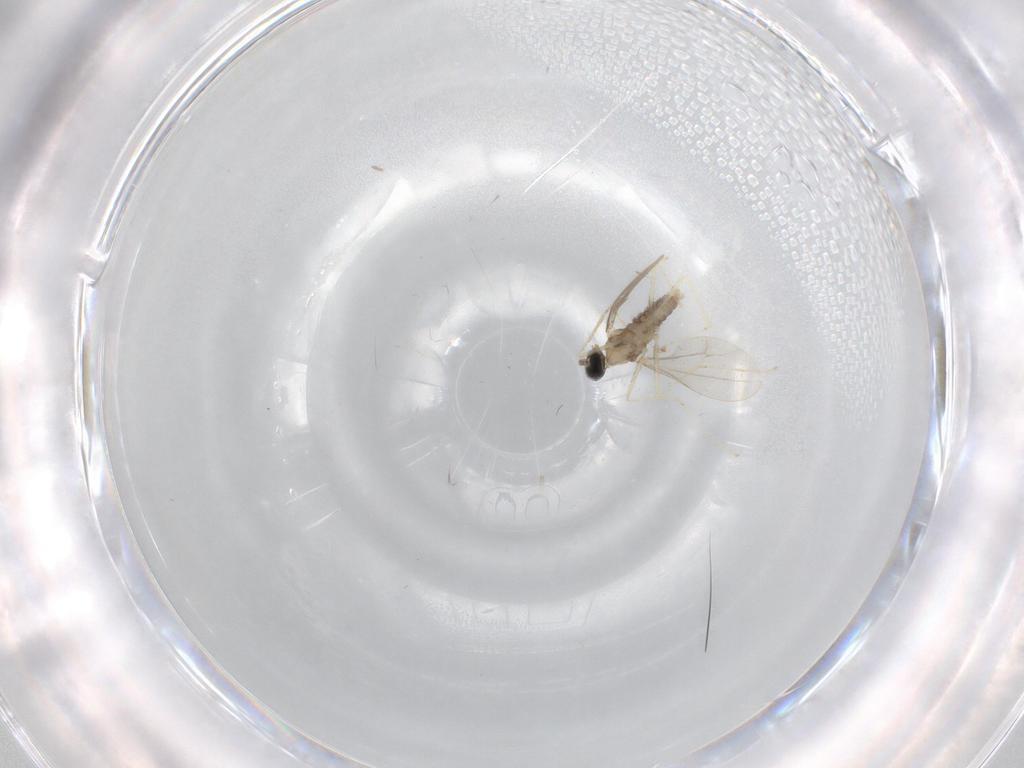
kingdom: Animalia
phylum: Arthropoda
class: Insecta
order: Diptera
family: Cecidomyiidae
